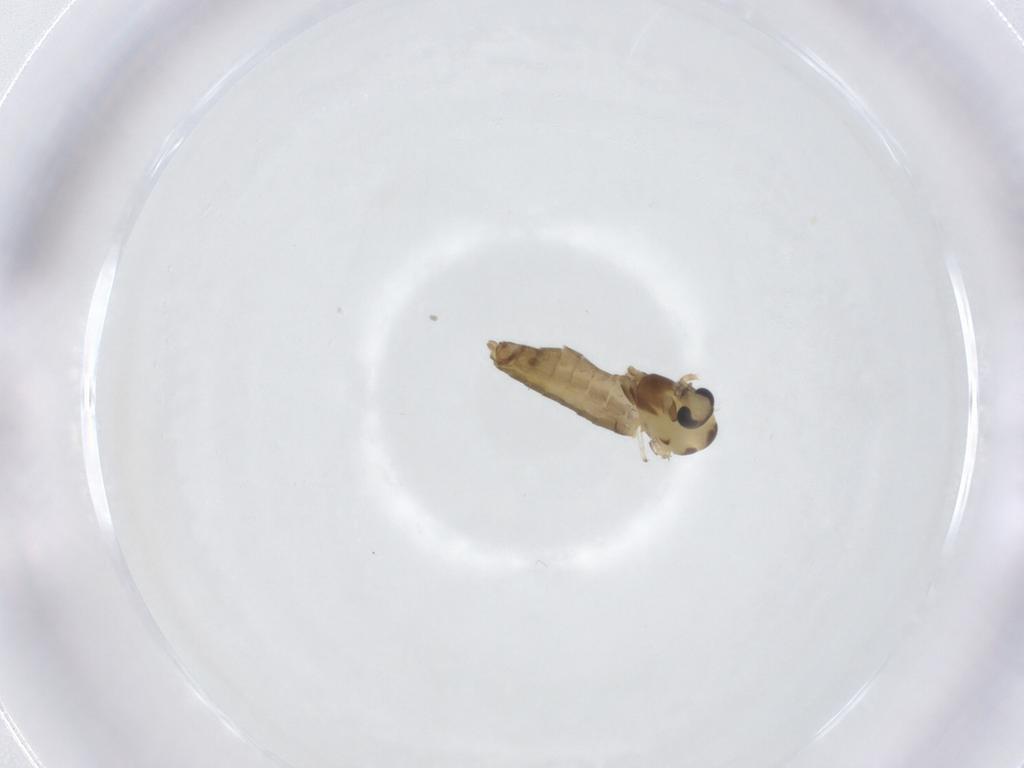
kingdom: Animalia
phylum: Arthropoda
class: Insecta
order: Diptera
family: Chironomidae
